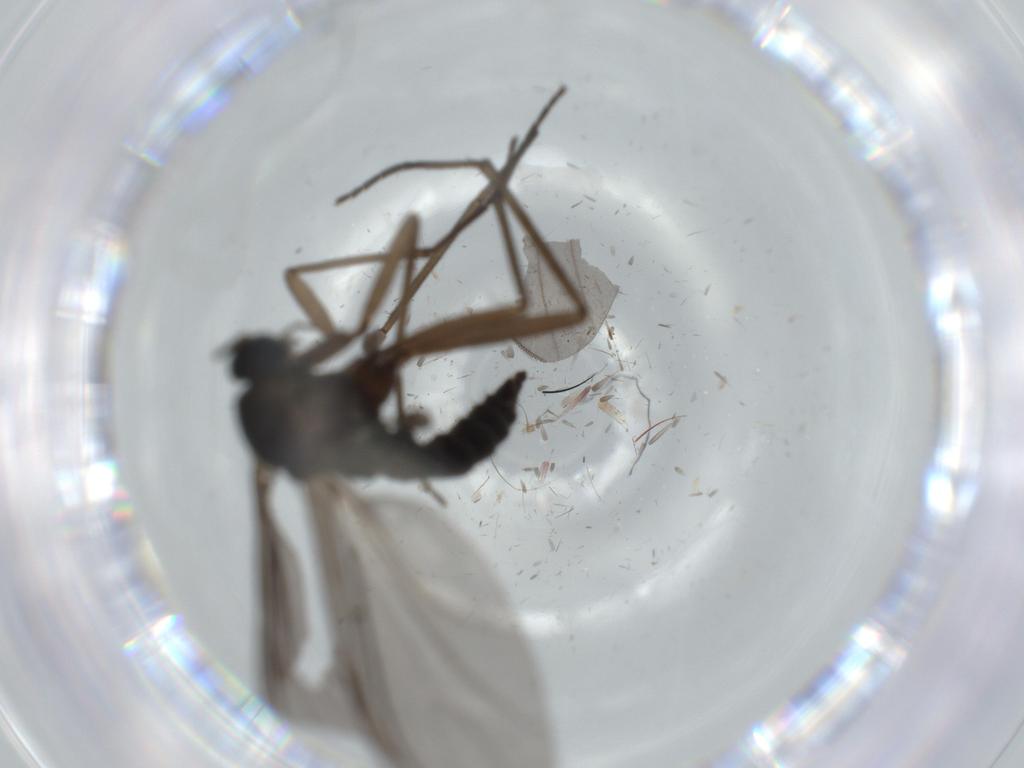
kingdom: Animalia
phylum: Arthropoda
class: Insecta
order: Diptera
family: Sciaridae
